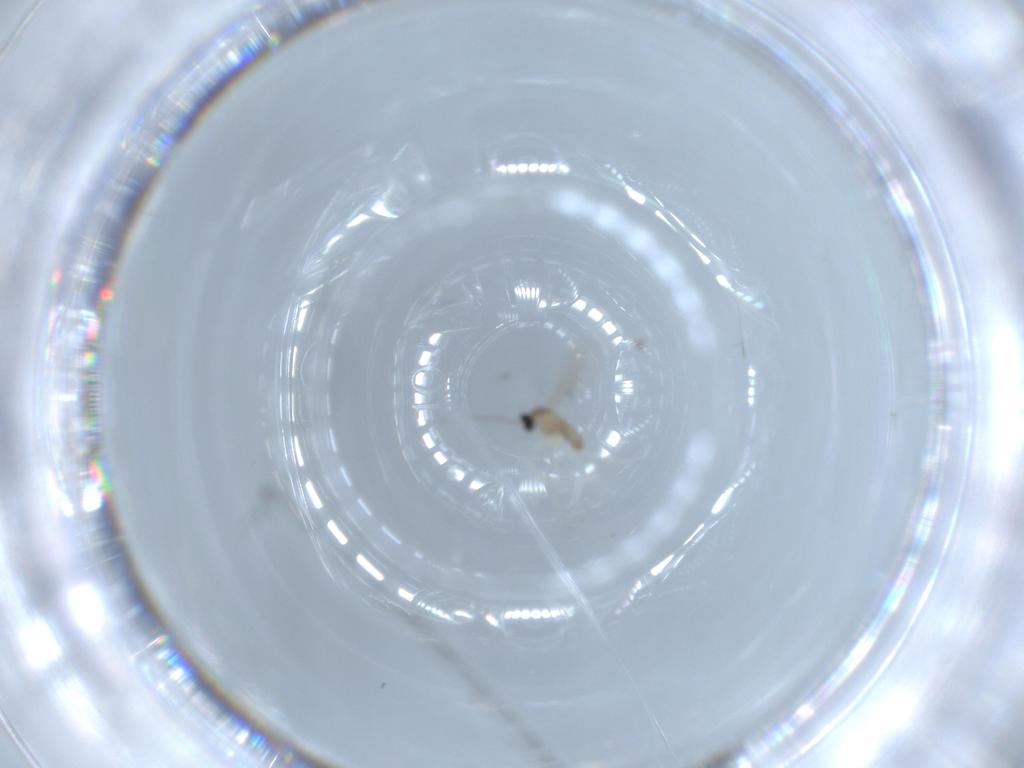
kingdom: Animalia
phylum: Arthropoda
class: Insecta
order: Diptera
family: Cecidomyiidae
